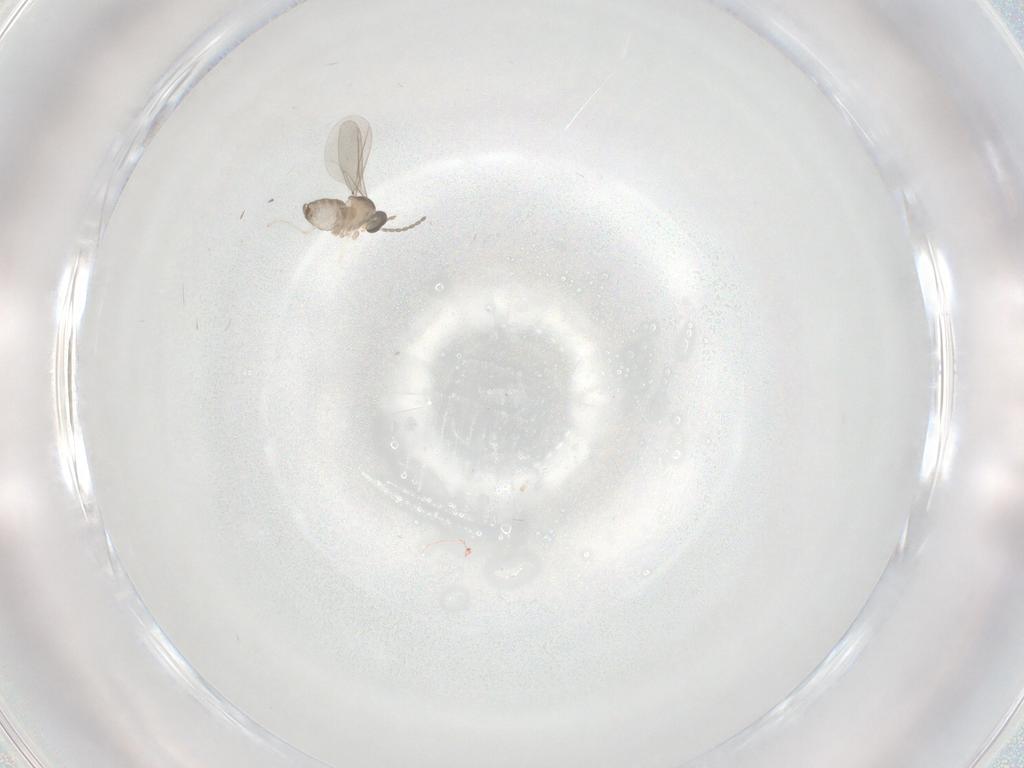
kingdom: Animalia
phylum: Arthropoda
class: Insecta
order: Diptera
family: Cecidomyiidae
